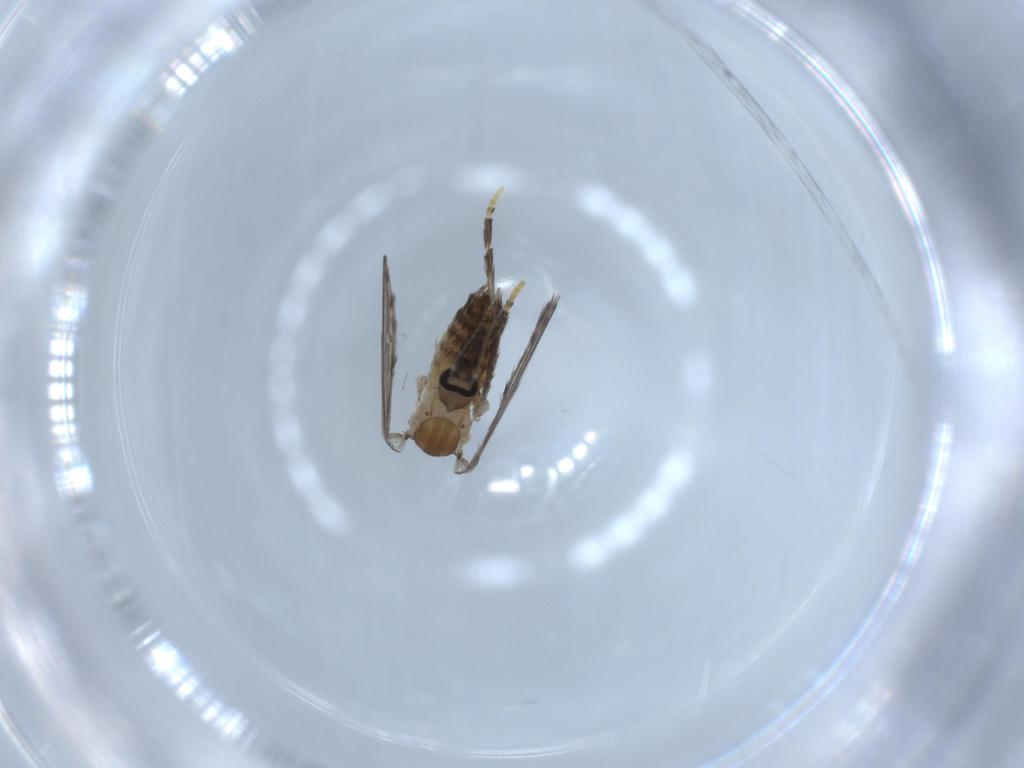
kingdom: Animalia
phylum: Arthropoda
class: Insecta
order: Diptera
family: Psychodidae
